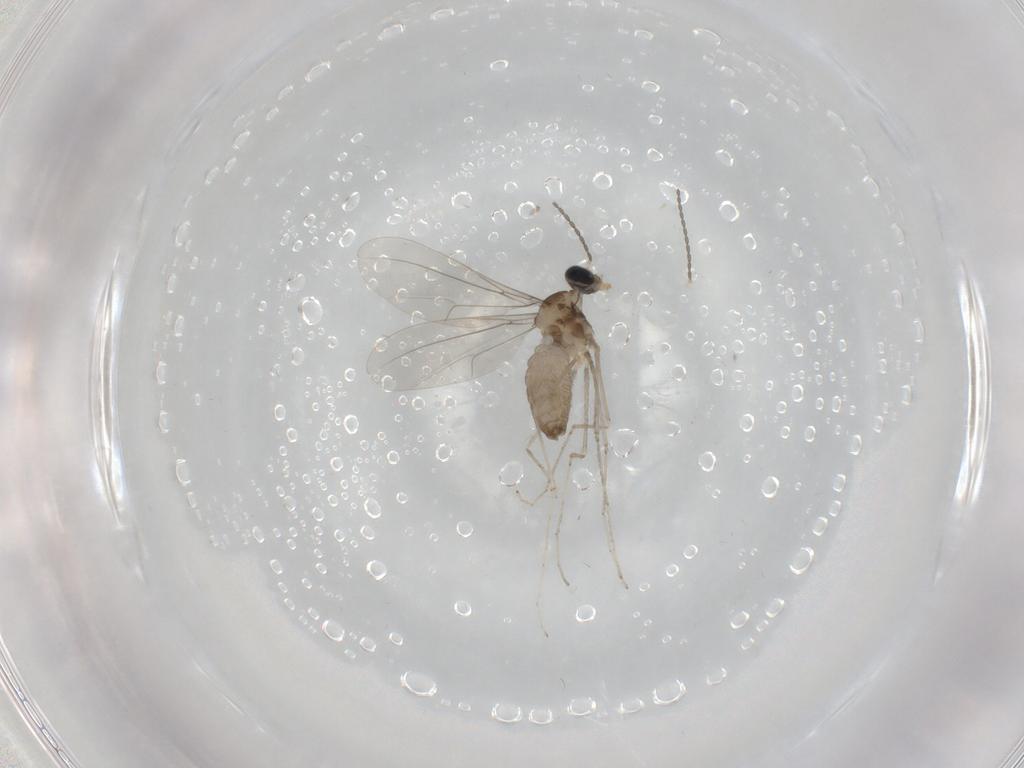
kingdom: Animalia
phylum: Arthropoda
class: Insecta
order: Diptera
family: Cecidomyiidae
